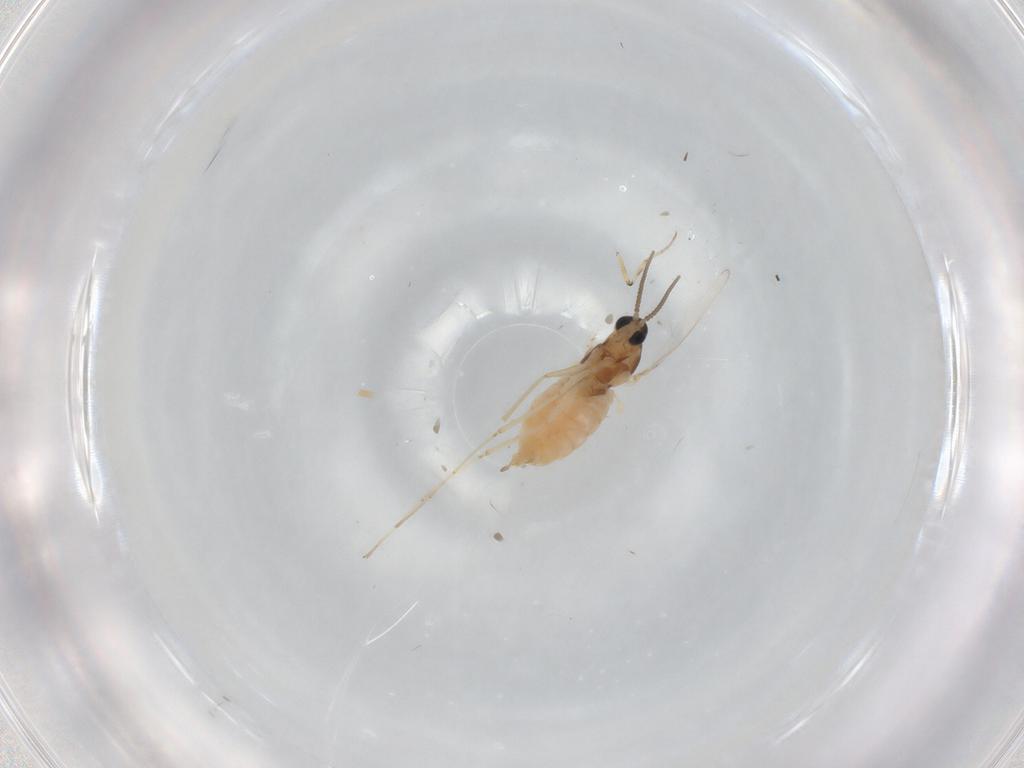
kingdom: Animalia
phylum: Arthropoda
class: Insecta
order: Diptera
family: Cecidomyiidae
